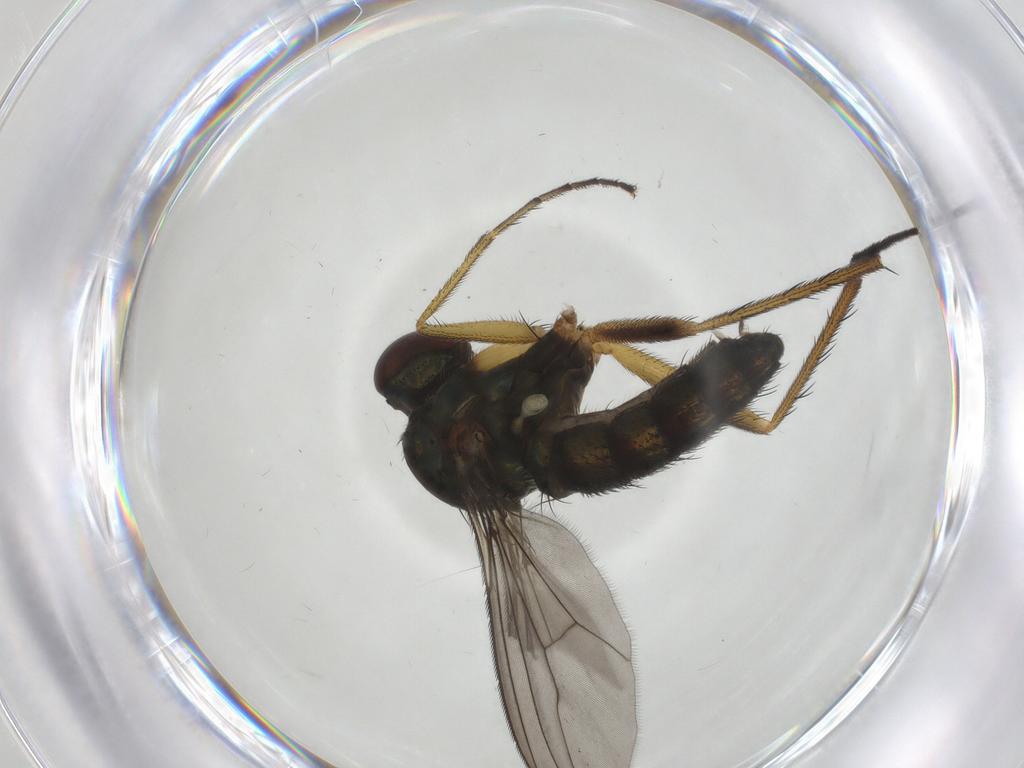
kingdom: Animalia
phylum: Arthropoda
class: Insecta
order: Diptera
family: Dolichopodidae
